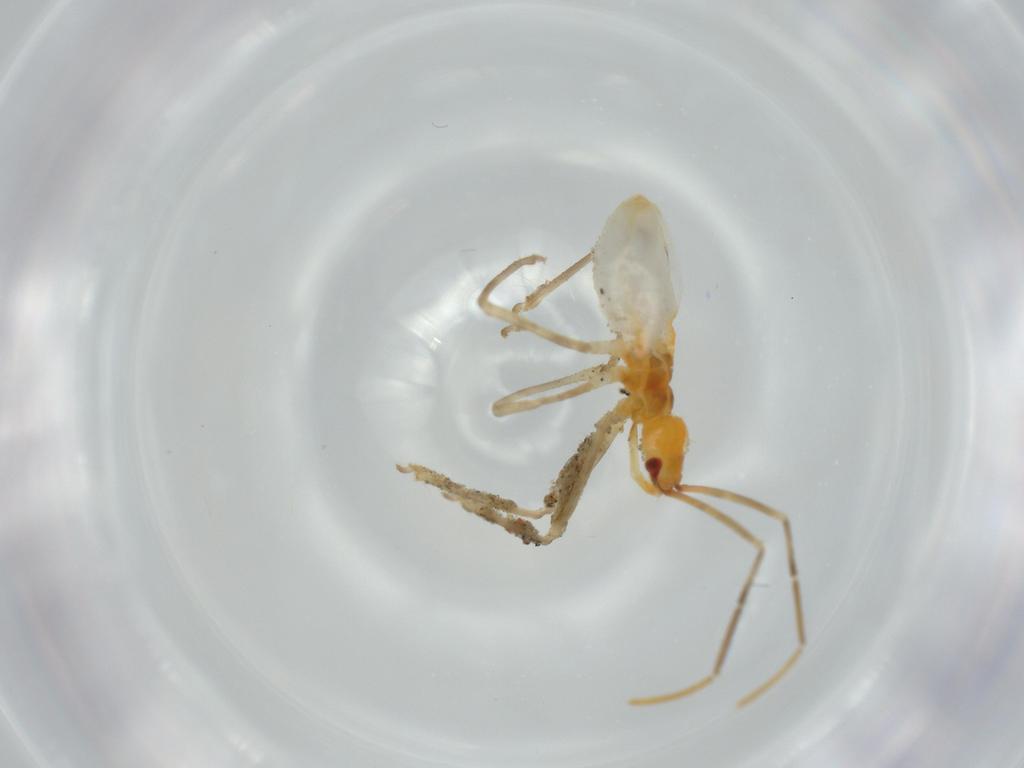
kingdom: Animalia
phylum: Arthropoda
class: Insecta
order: Hemiptera
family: Reduviidae
